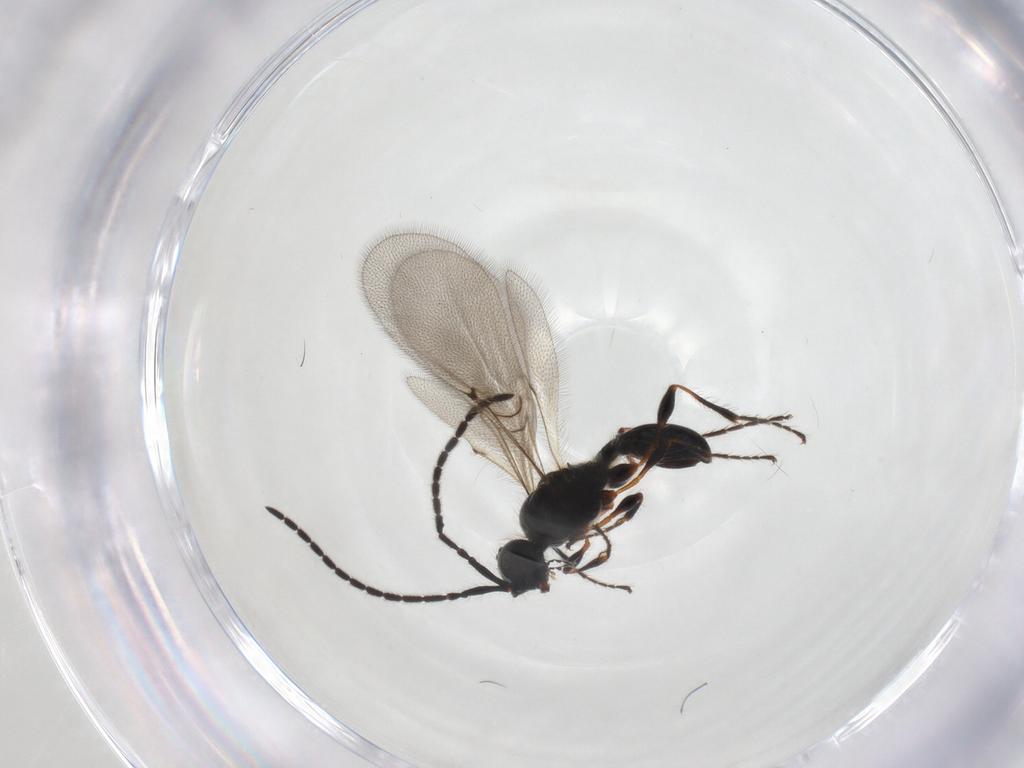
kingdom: Animalia
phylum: Arthropoda
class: Insecta
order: Hymenoptera
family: Diapriidae
